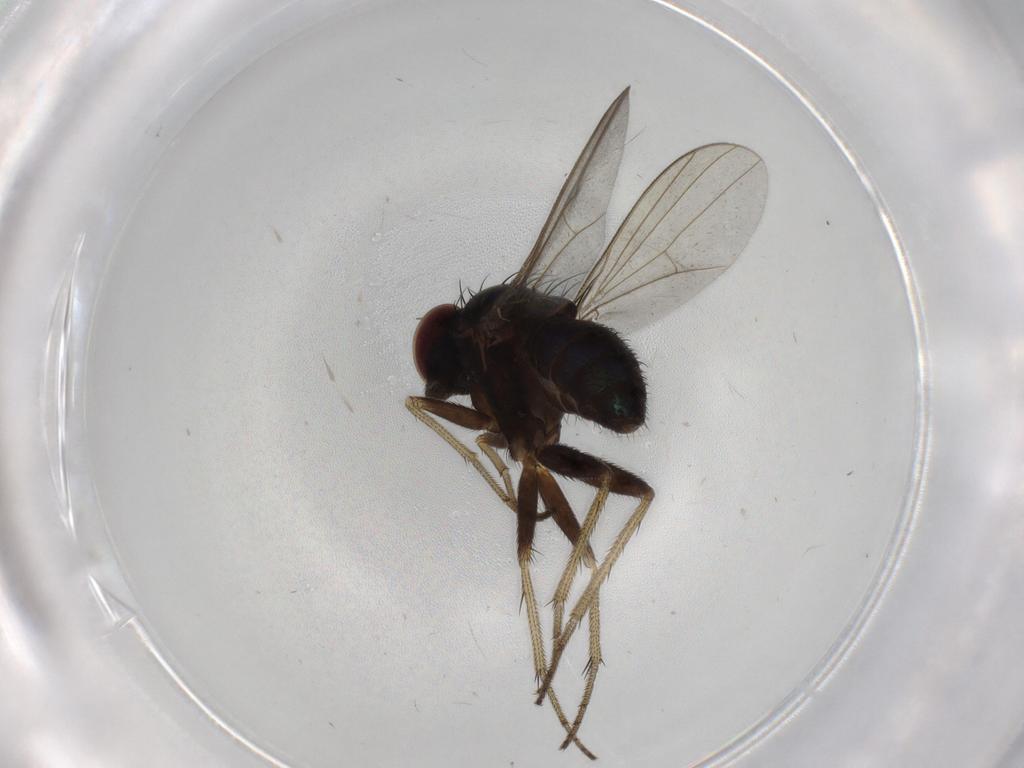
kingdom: Animalia
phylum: Arthropoda
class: Insecta
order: Diptera
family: Dolichopodidae
